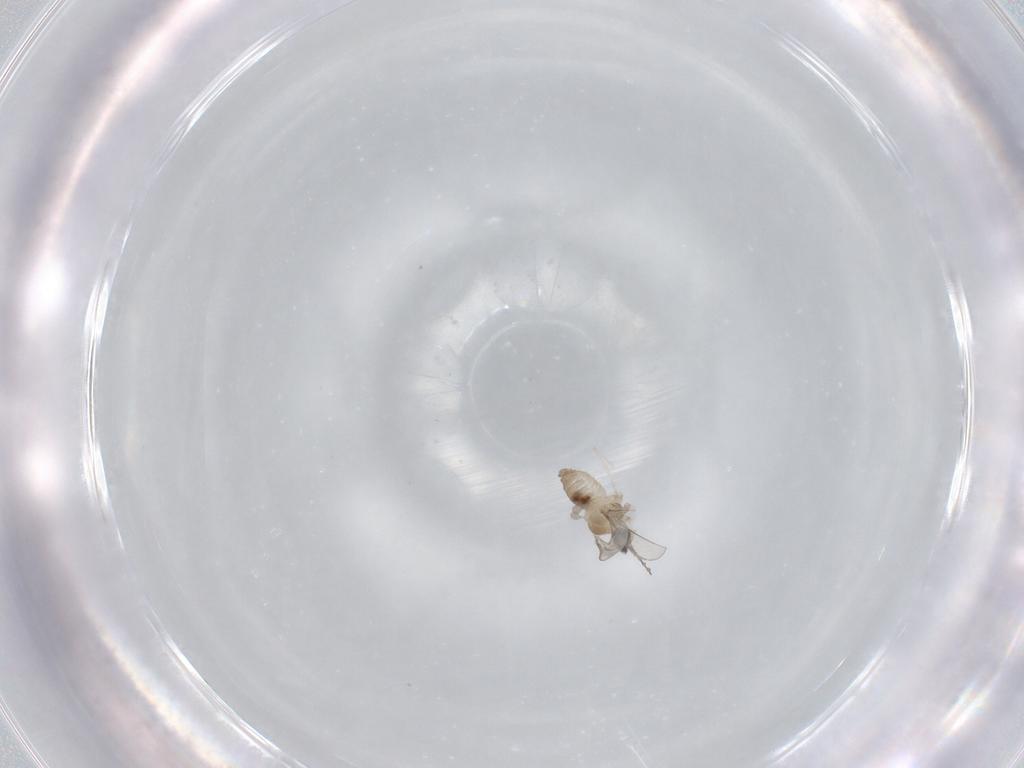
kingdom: Animalia
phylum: Arthropoda
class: Insecta
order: Diptera
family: Cecidomyiidae
